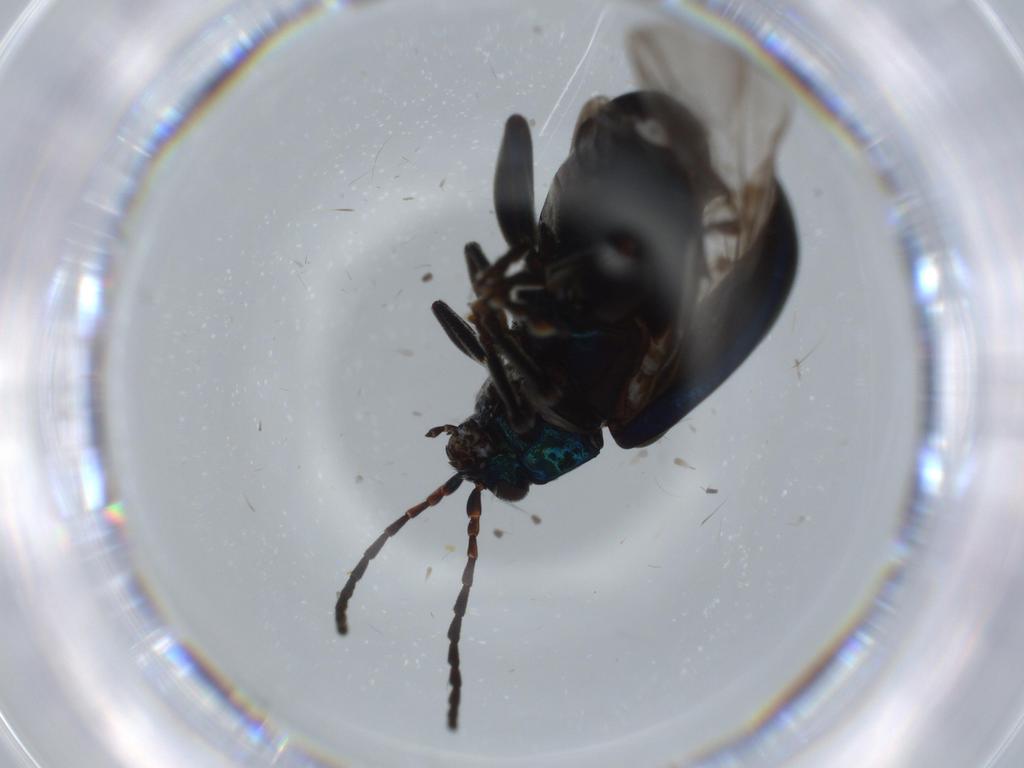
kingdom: Animalia
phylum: Arthropoda
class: Insecta
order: Coleoptera
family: Chrysomelidae
